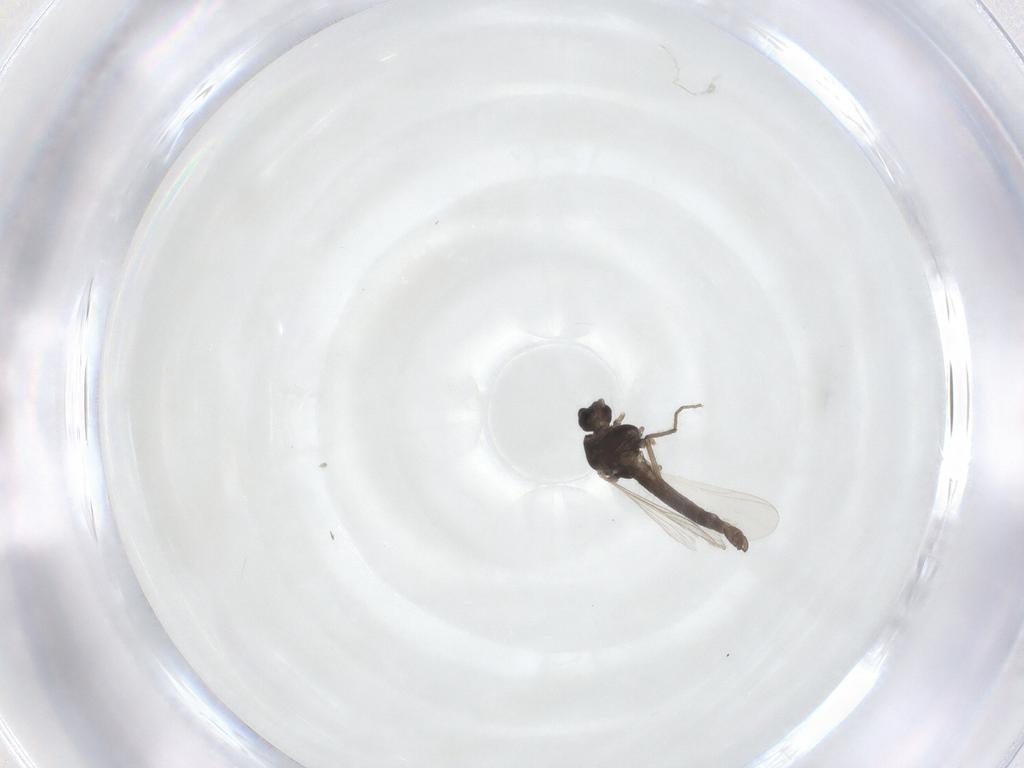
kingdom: Animalia
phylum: Arthropoda
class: Insecta
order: Diptera
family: Chironomidae
